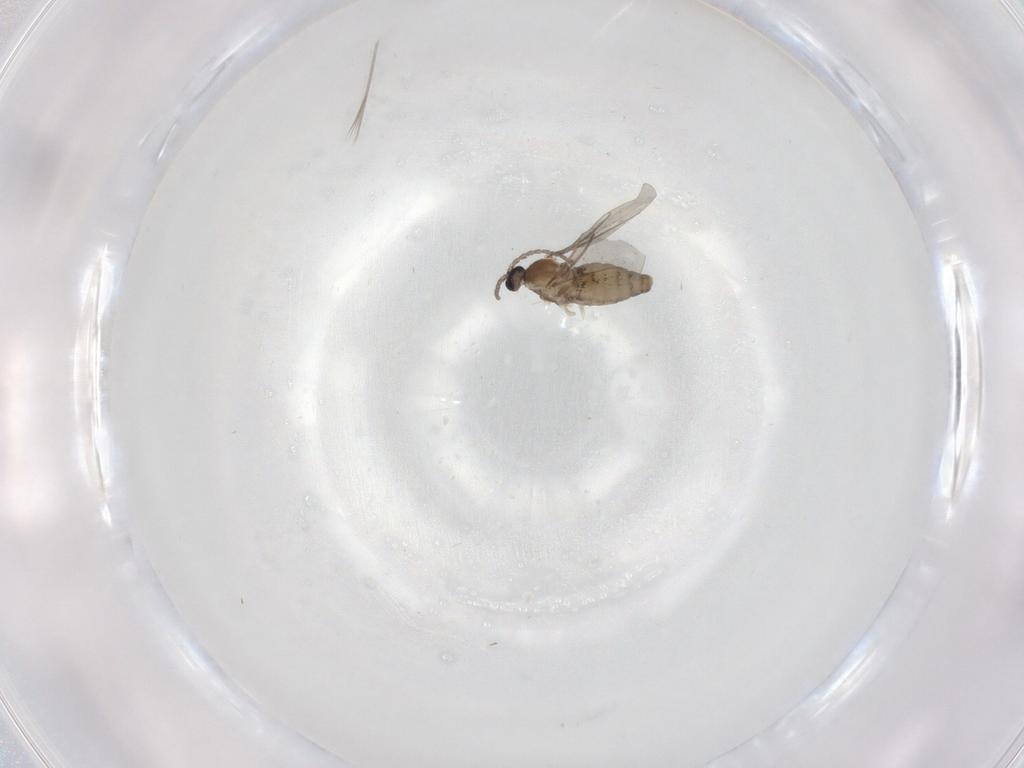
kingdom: Animalia
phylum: Arthropoda
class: Insecta
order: Diptera
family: Cecidomyiidae
